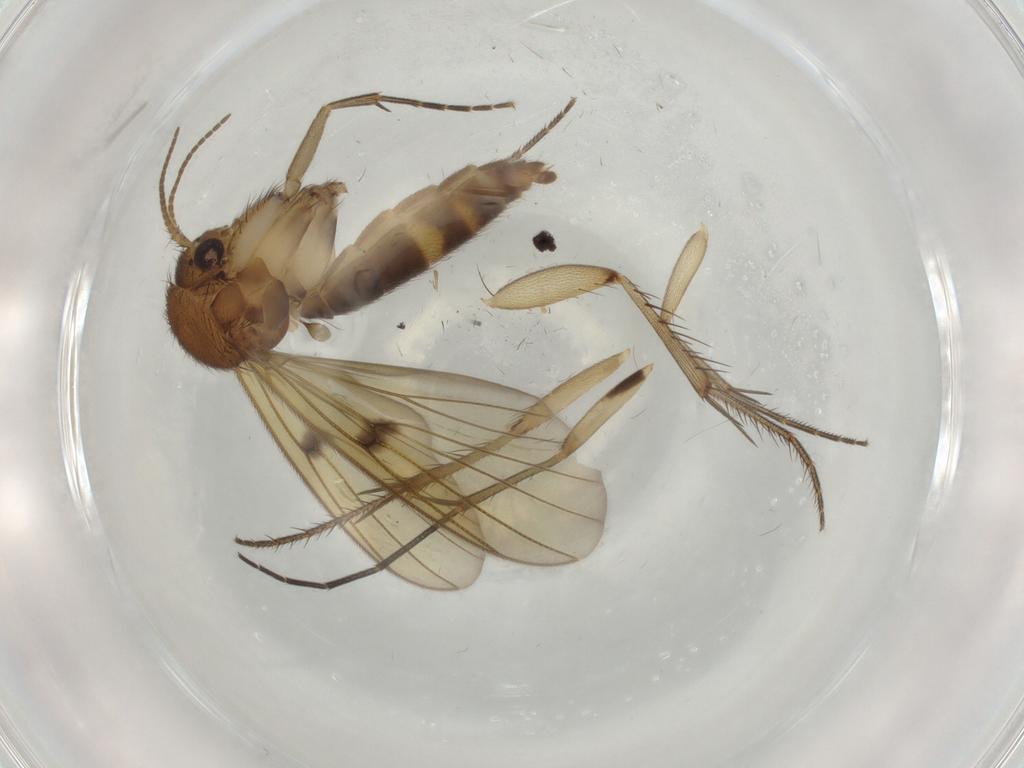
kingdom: Animalia
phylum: Arthropoda
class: Insecta
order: Diptera
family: Mycetophilidae
